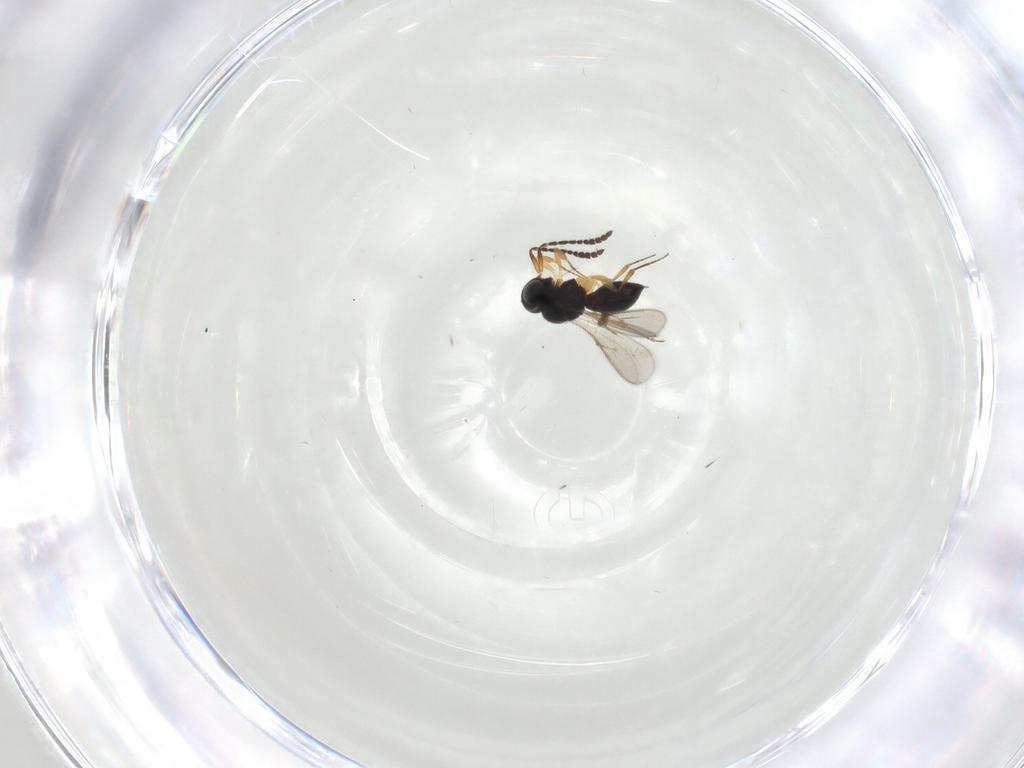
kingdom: Animalia
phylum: Arthropoda
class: Insecta
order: Hymenoptera
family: Scelionidae
